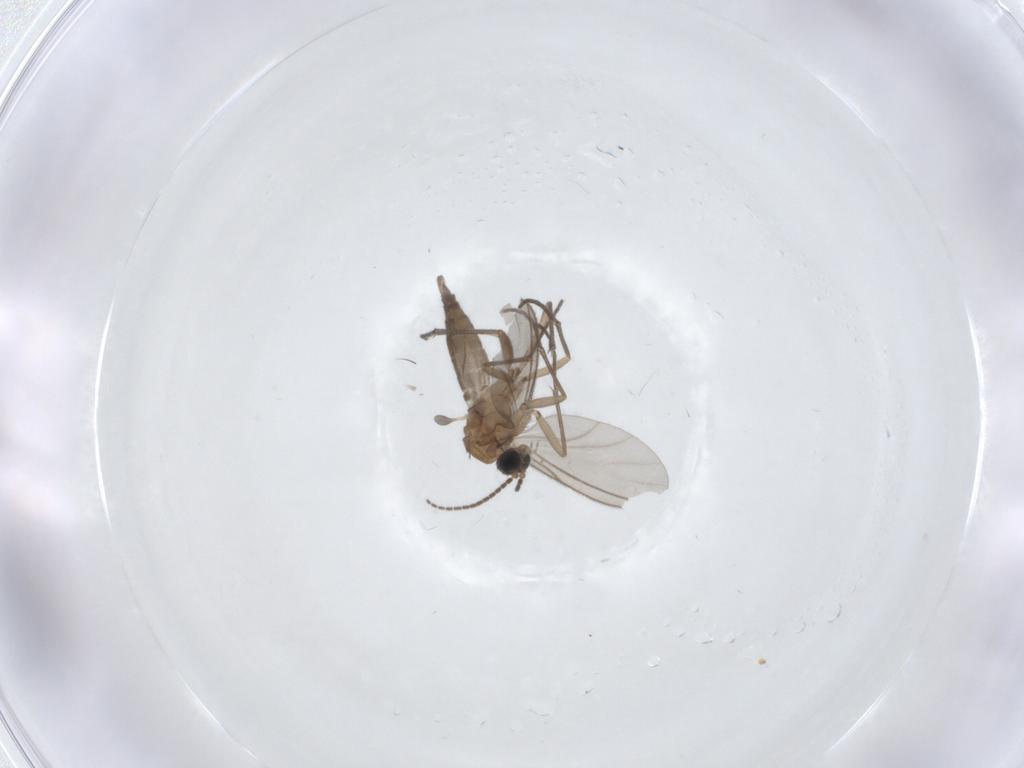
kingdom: Animalia
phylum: Arthropoda
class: Insecta
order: Diptera
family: Sciaridae
